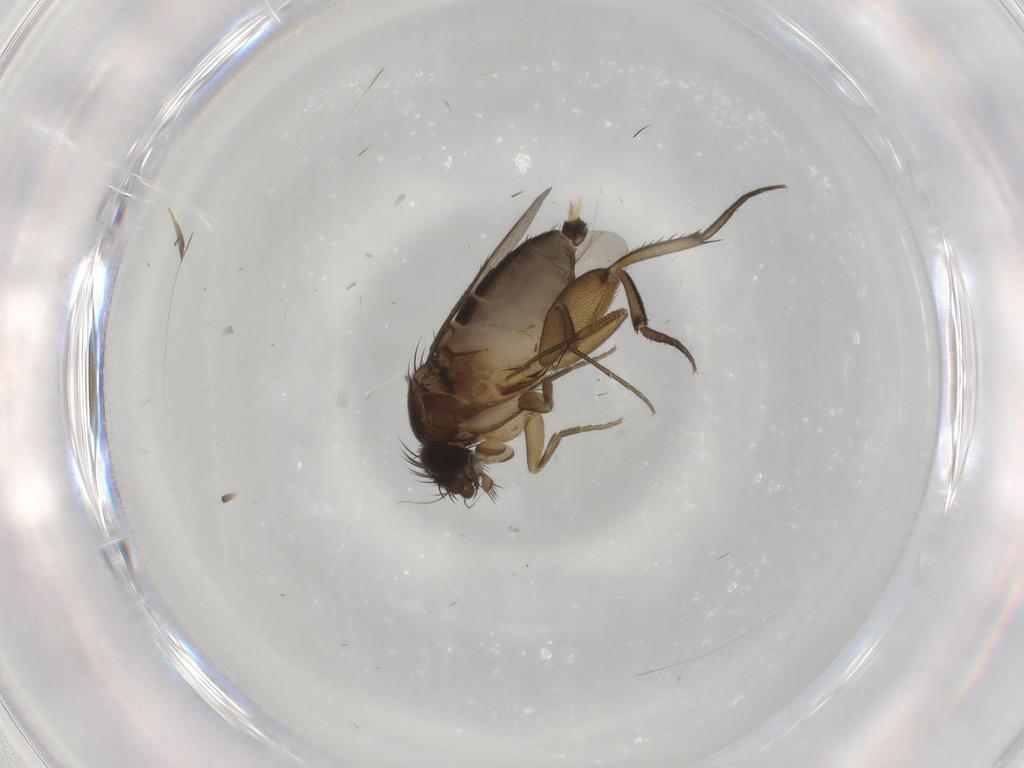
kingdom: Animalia
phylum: Arthropoda
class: Insecta
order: Diptera
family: Phoridae
